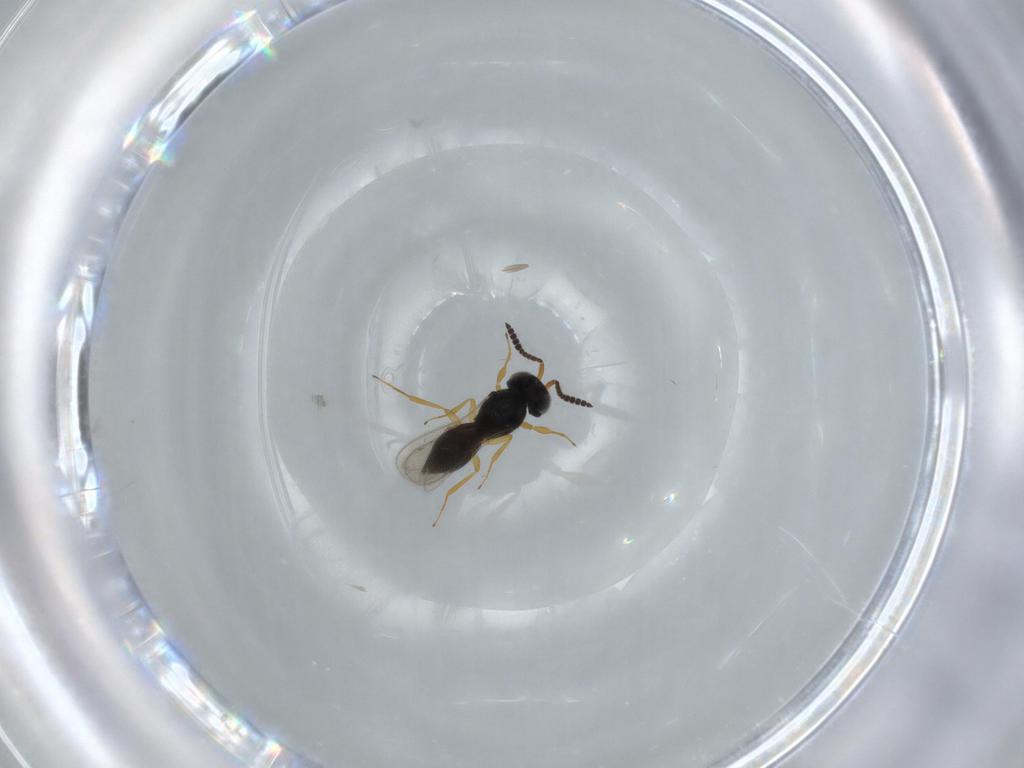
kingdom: Animalia
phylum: Arthropoda
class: Insecta
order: Hymenoptera
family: Scelionidae
